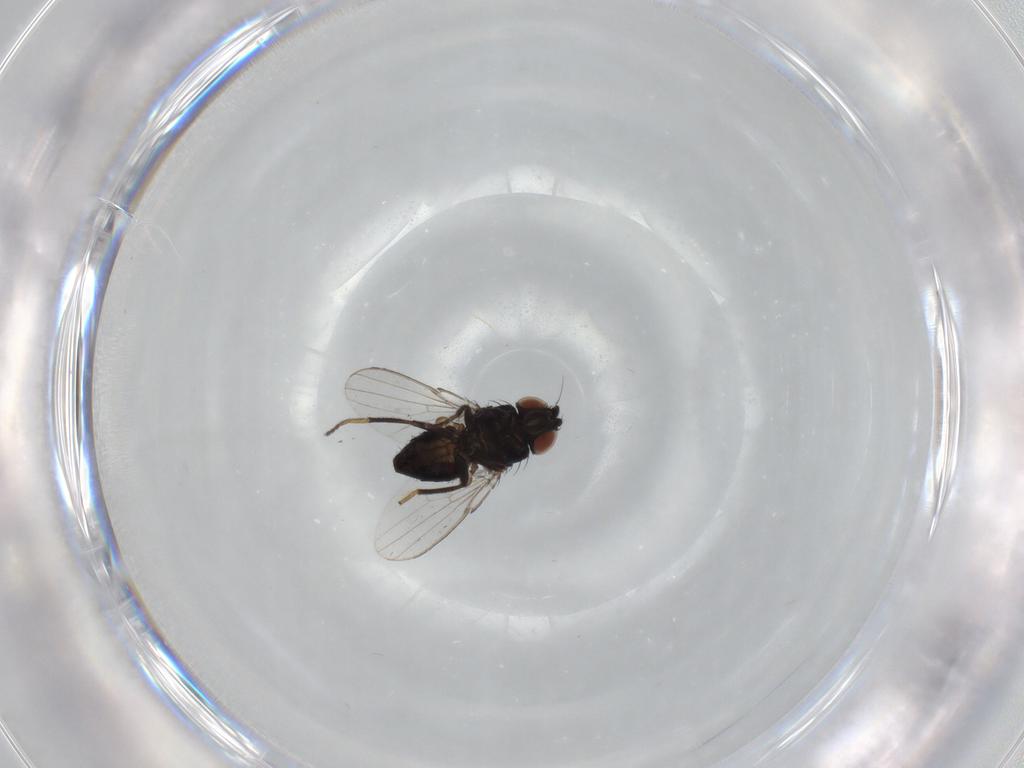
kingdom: Animalia
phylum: Arthropoda
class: Insecta
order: Diptera
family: Milichiidae
